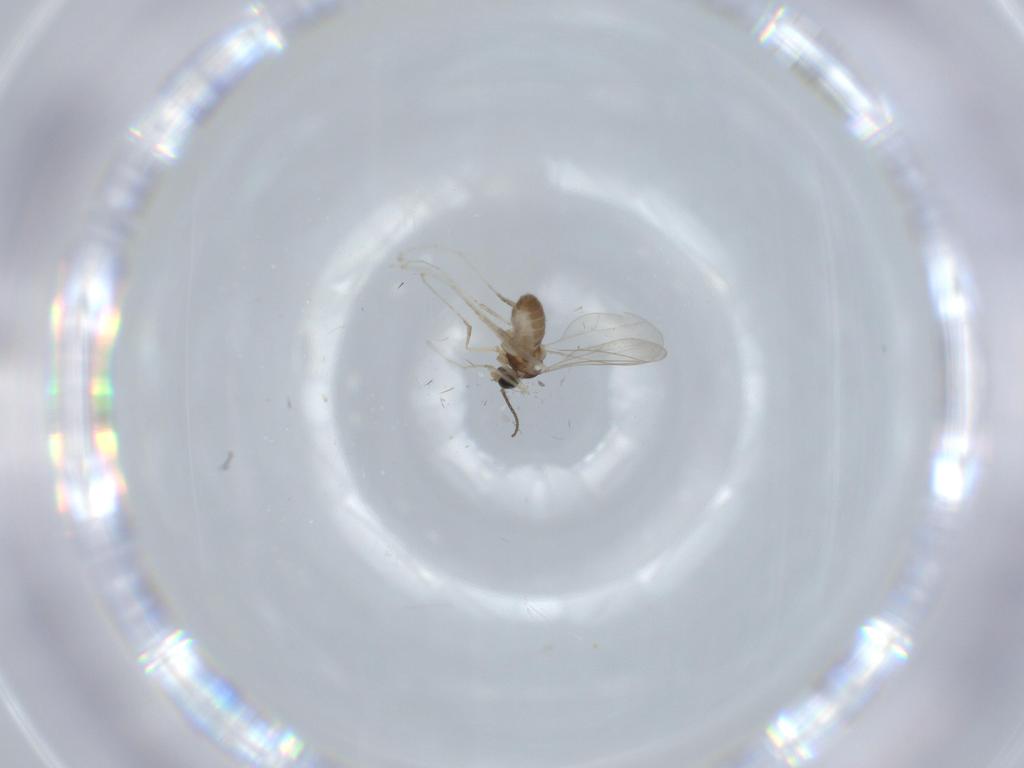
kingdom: Animalia
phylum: Arthropoda
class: Insecta
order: Diptera
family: Cecidomyiidae
